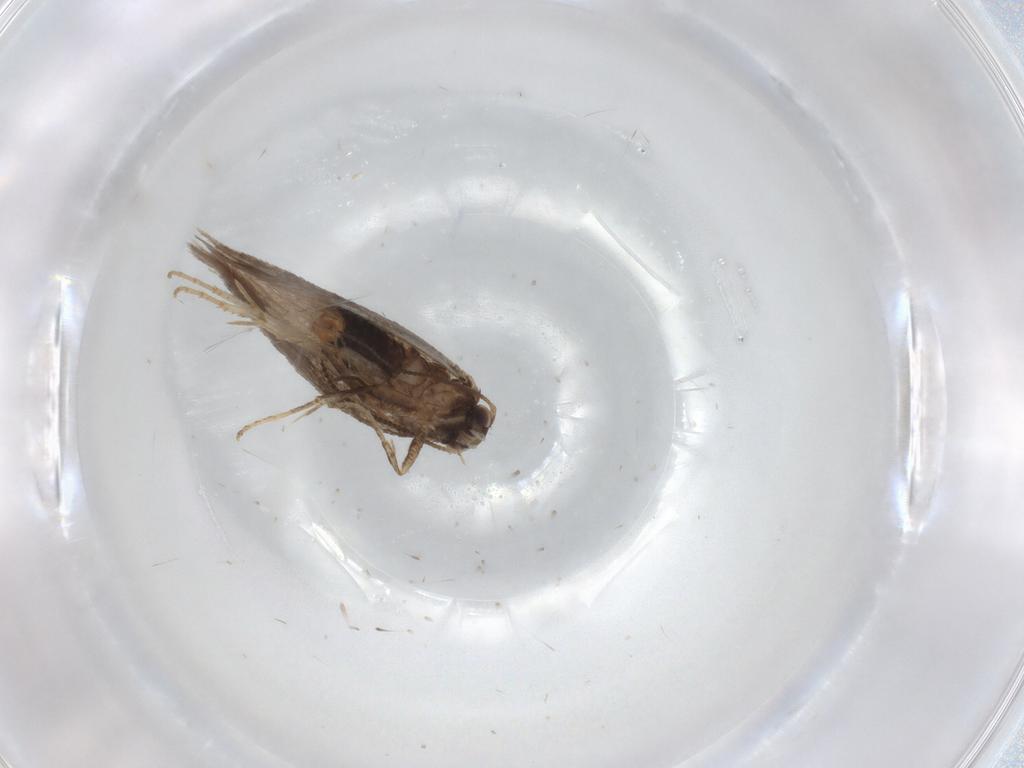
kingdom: Animalia
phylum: Arthropoda
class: Insecta
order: Lepidoptera
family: Nepticulidae
